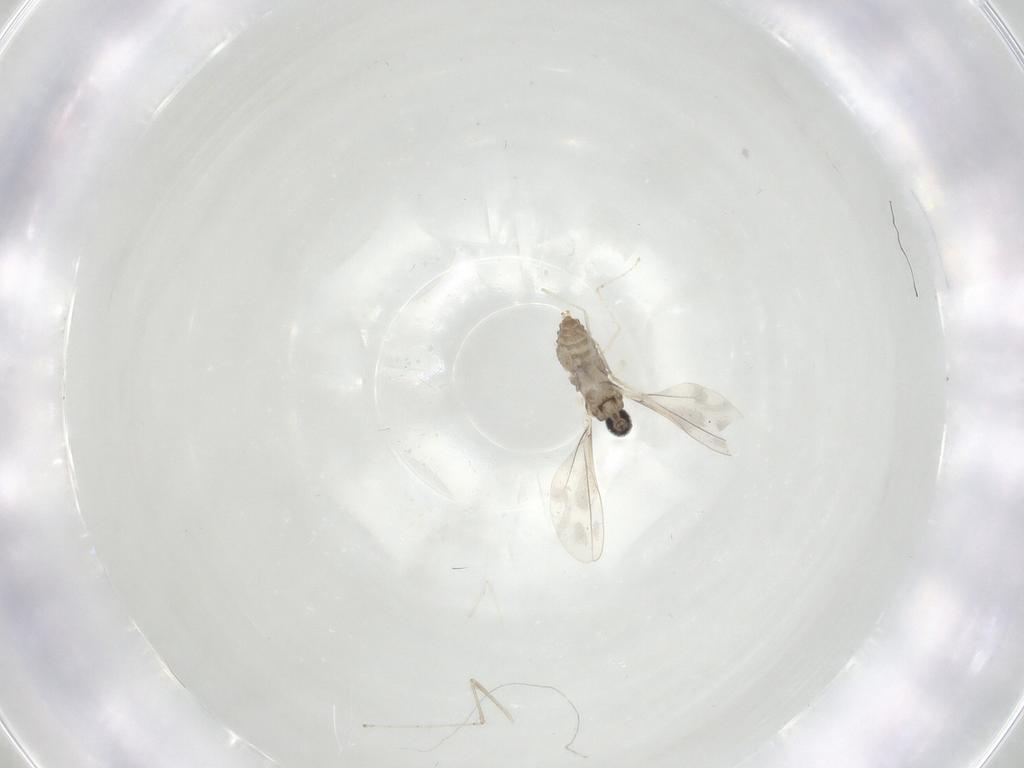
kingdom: Animalia
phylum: Arthropoda
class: Insecta
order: Diptera
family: Cecidomyiidae
